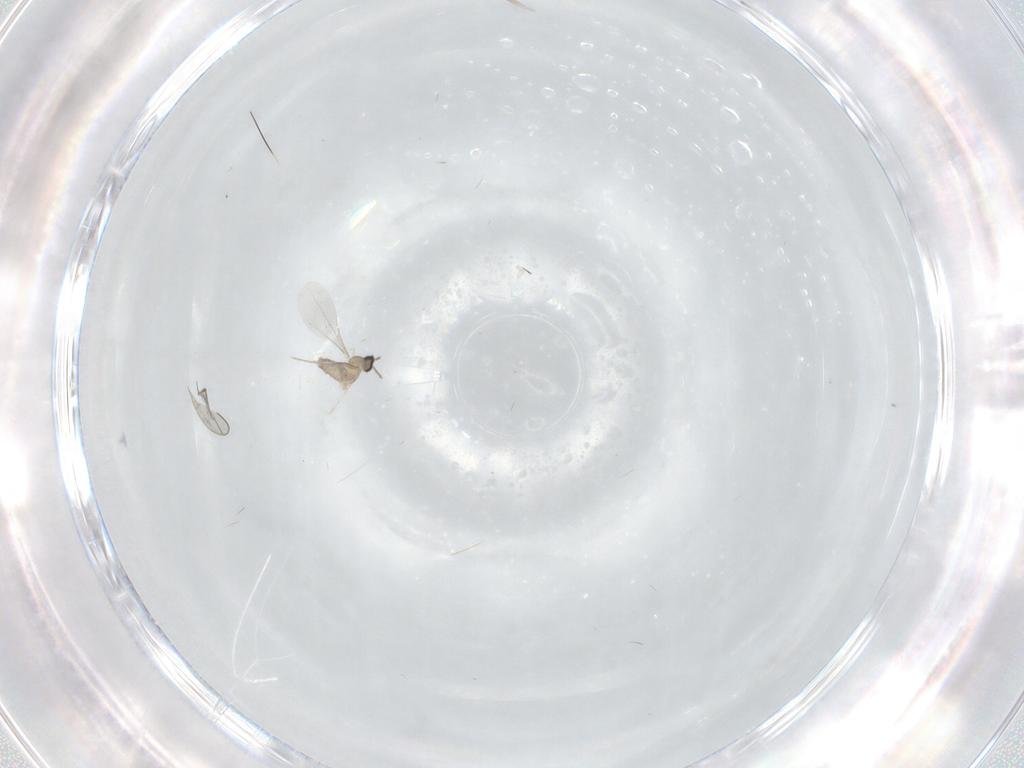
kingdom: Animalia
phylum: Arthropoda
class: Insecta
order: Diptera
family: Cecidomyiidae
